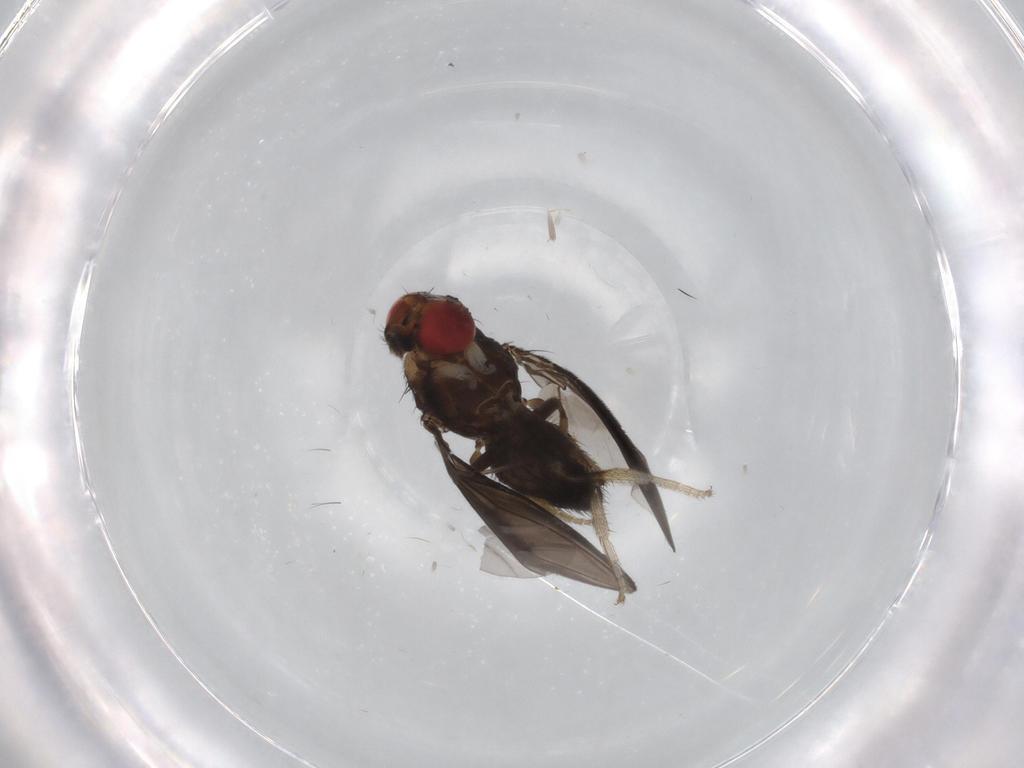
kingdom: Animalia
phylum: Arthropoda
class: Insecta
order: Diptera
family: Drosophilidae
